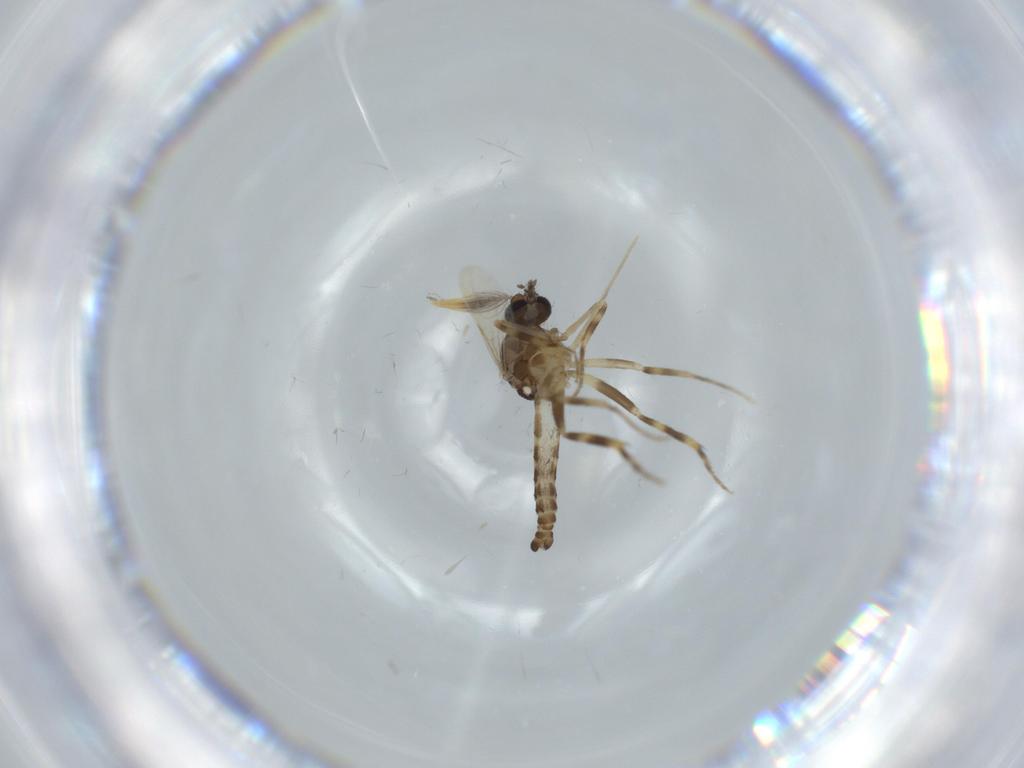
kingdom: Animalia
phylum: Arthropoda
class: Insecta
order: Diptera
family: Ceratopogonidae
